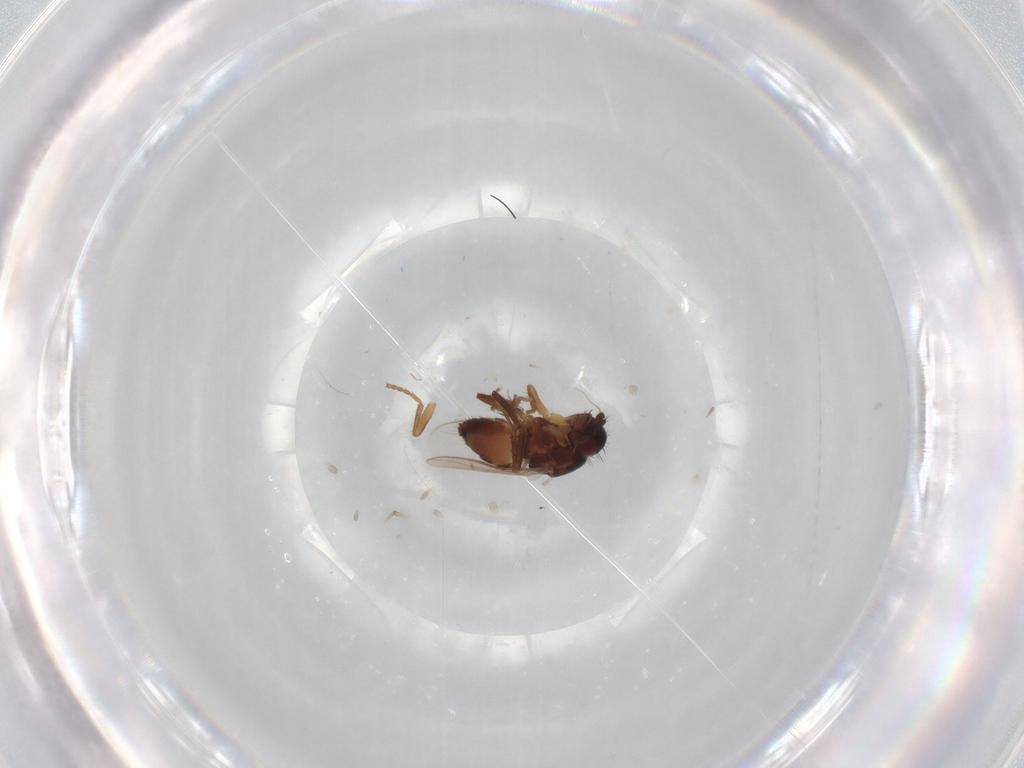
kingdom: Animalia
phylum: Arthropoda
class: Insecta
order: Diptera
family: Sphaeroceridae
